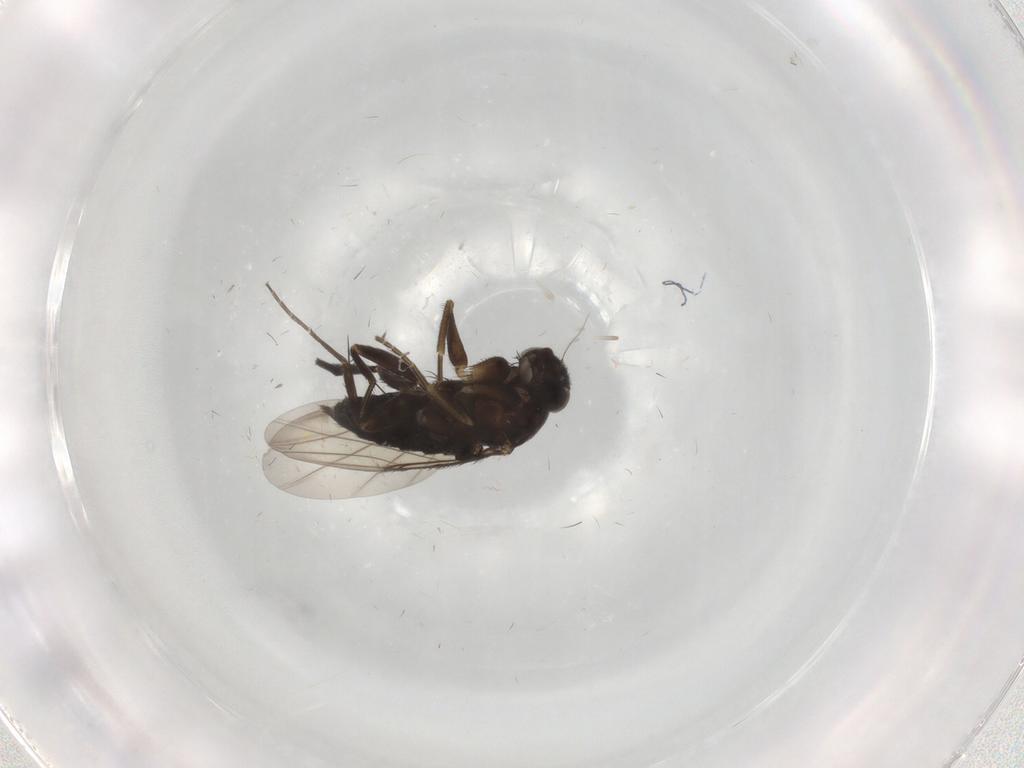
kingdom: Animalia
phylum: Arthropoda
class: Insecta
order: Diptera
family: Phoridae
